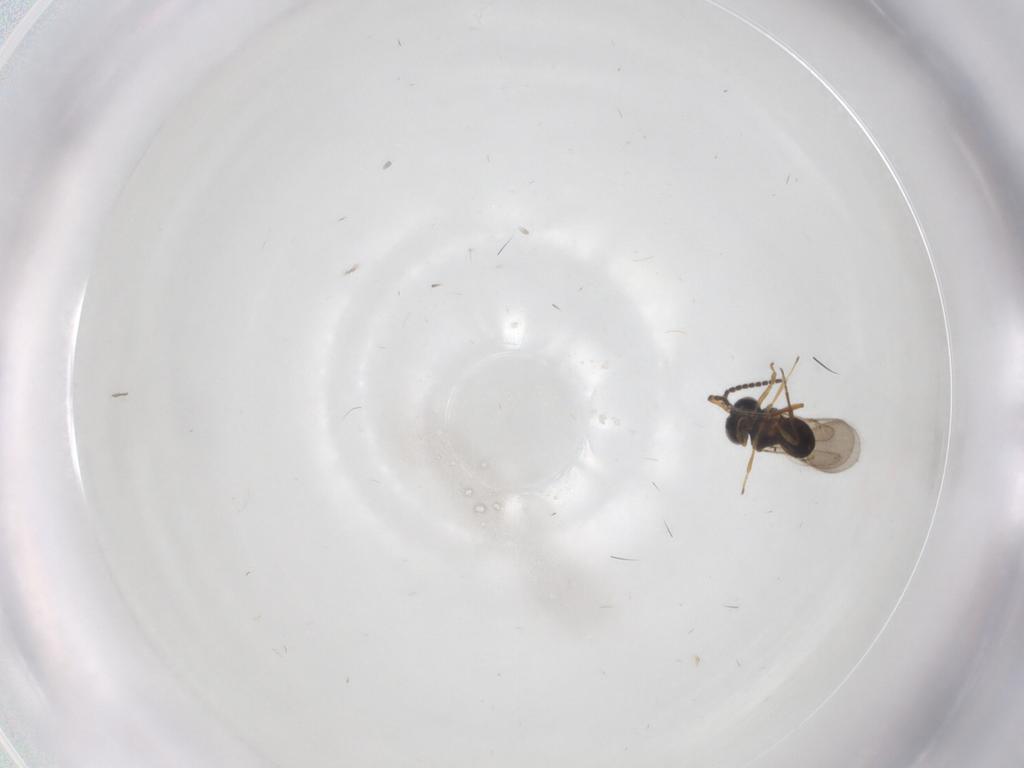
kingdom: Animalia
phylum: Arthropoda
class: Insecta
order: Hymenoptera
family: Scelionidae
